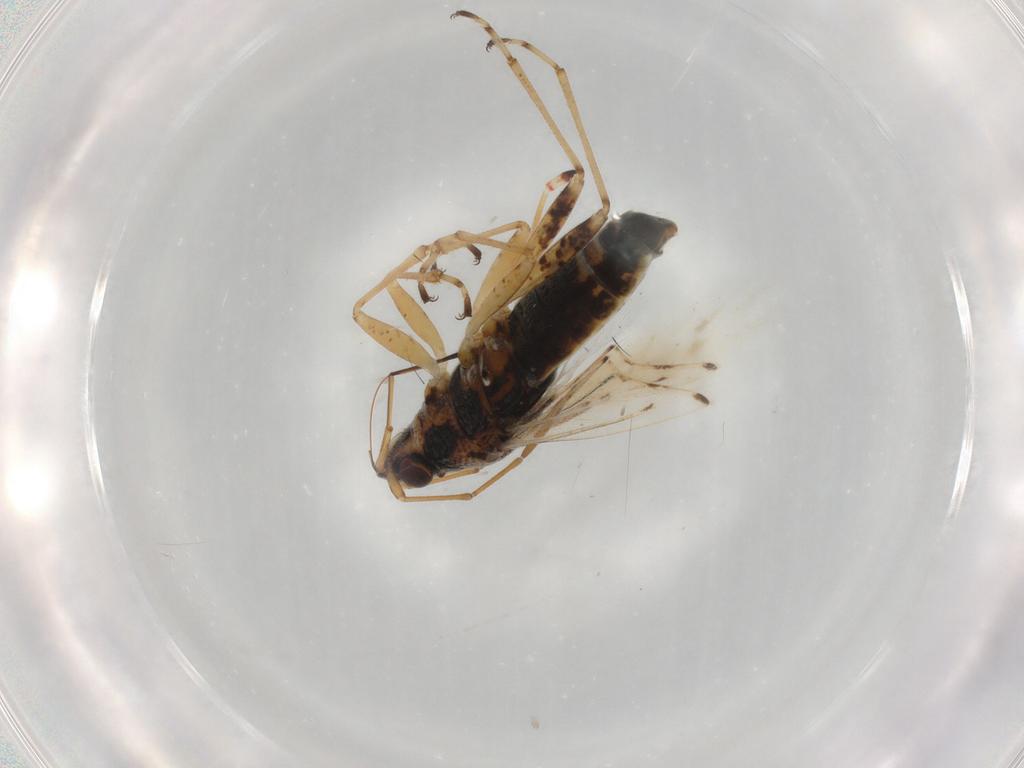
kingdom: Animalia
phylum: Arthropoda
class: Insecta
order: Hemiptera
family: Lygaeidae
